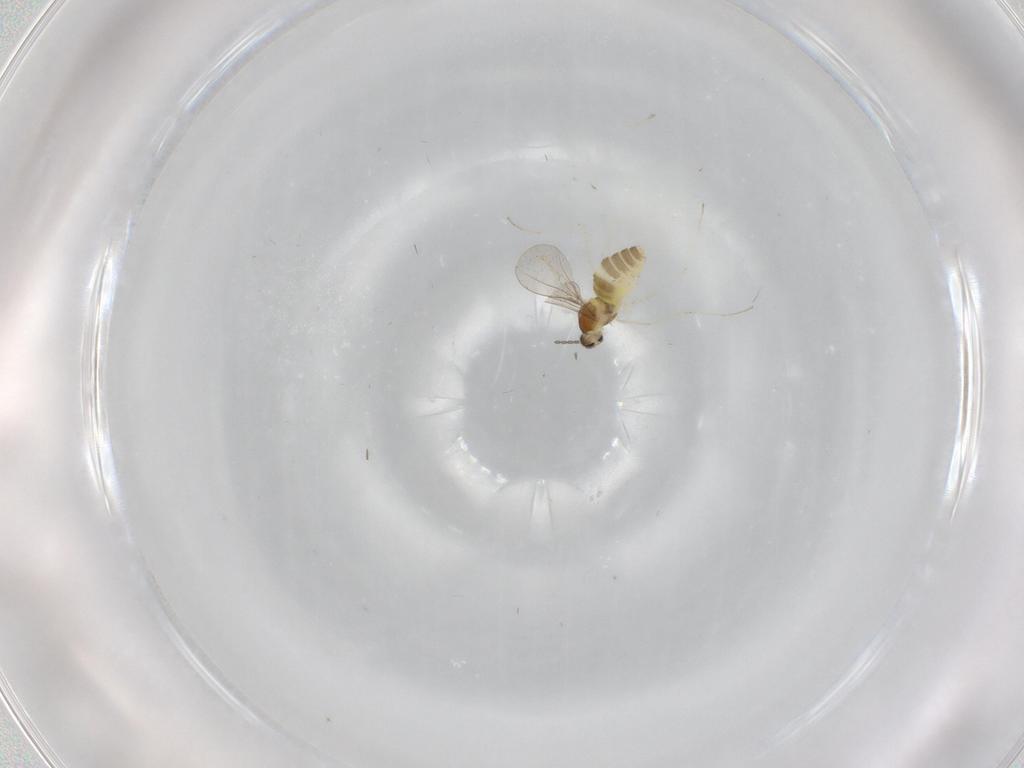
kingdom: Animalia
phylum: Arthropoda
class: Insecta
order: Diptera
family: Cecidomyiidae
